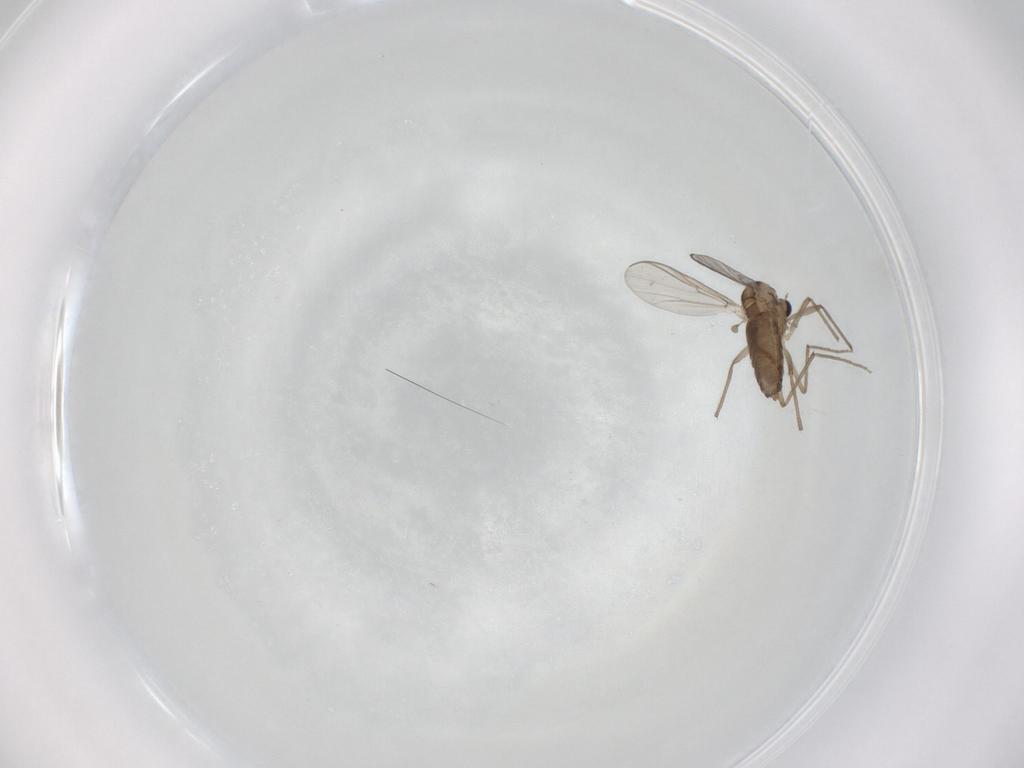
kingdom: Animalia
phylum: Arthropoda
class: Insecta
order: Diptera
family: Chironomidae
